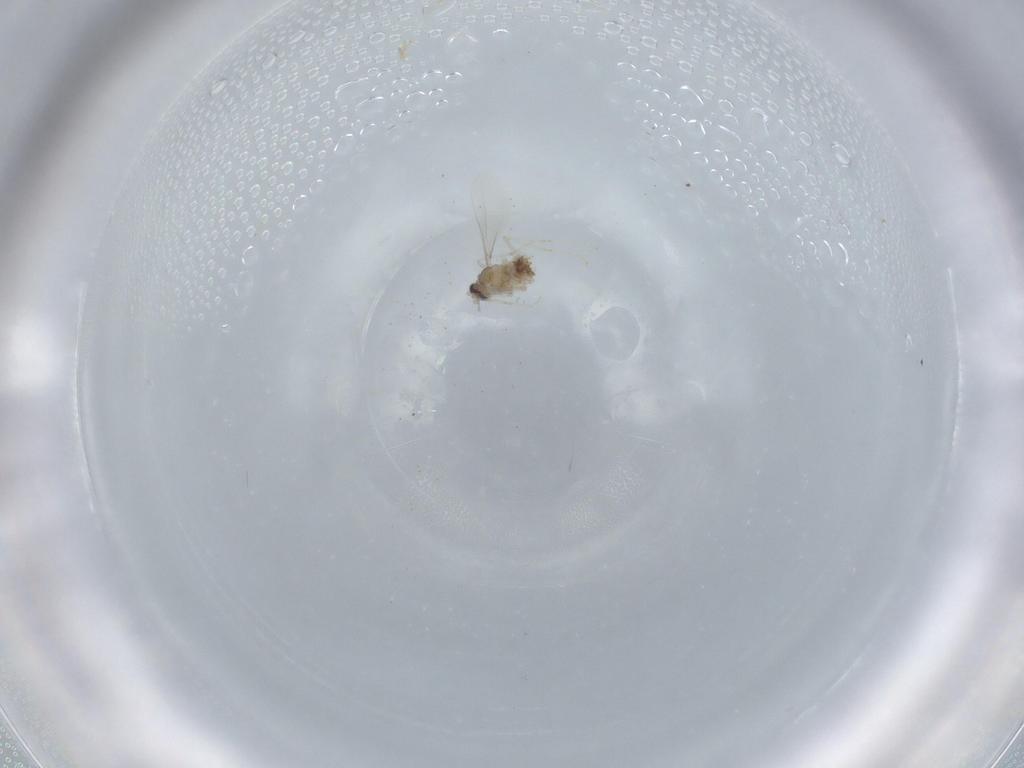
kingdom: Animalia
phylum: Arthropoda
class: Insecta
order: Diptera
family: Cecidomyiidae
